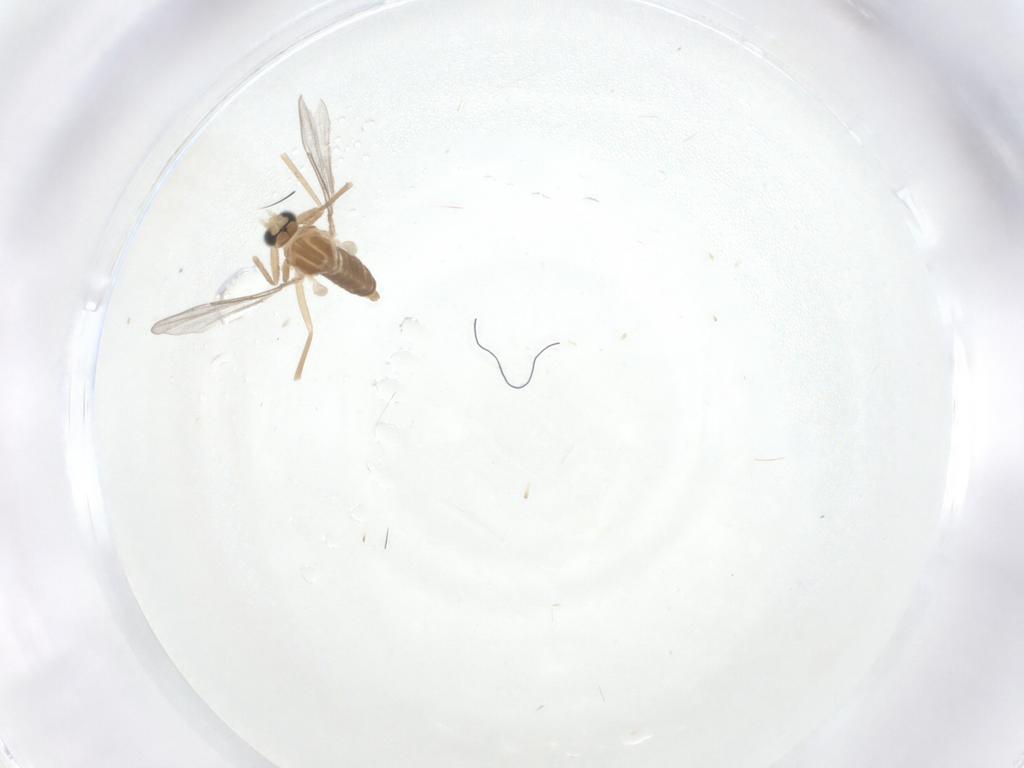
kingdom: Animalia
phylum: Arthropoda
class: Insecta
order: Diptera
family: Cecidomyiidae
